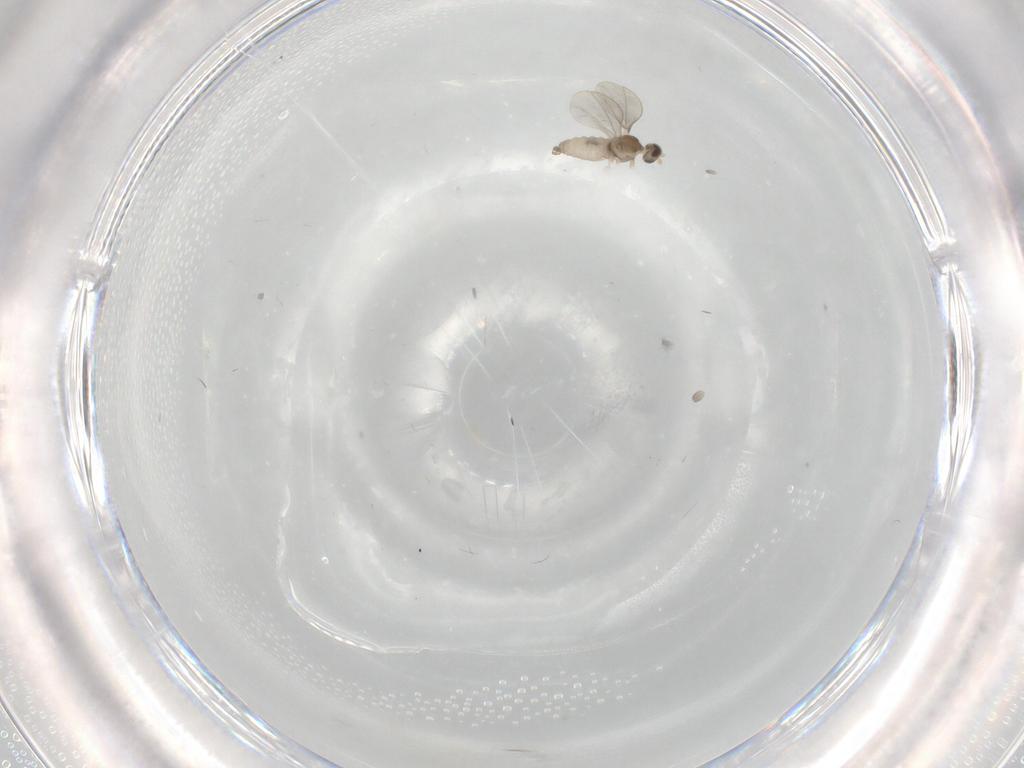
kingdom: Animalia
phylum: Arthropoda
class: Insecta
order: Diptera
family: Cecidomyiidae
